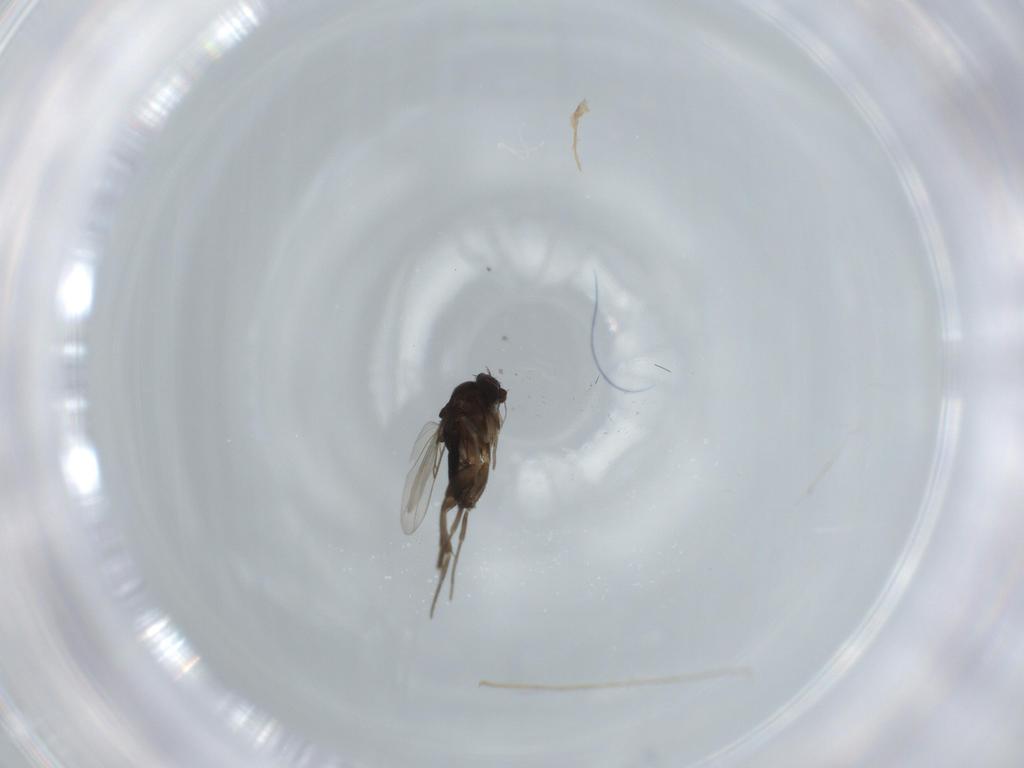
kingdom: Animalia
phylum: Arthropoda
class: Insecta
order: Diptera
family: Phoridae
